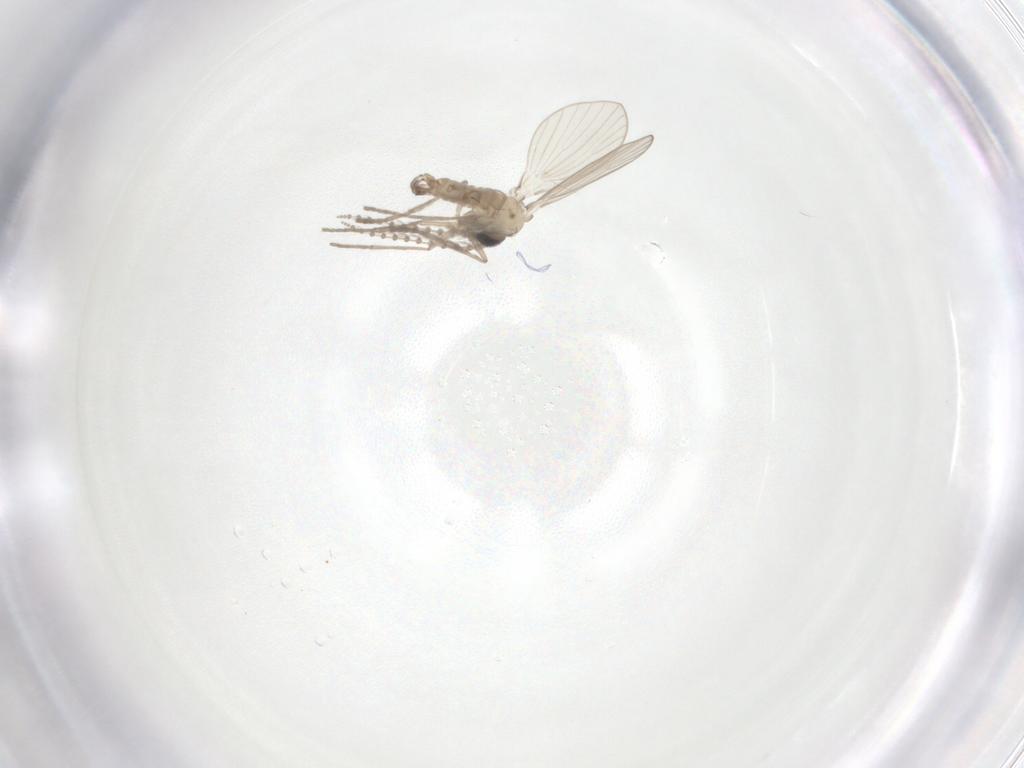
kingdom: Animalia
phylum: Arthropoda
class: Insecta
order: Diptera
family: Psychodidae
